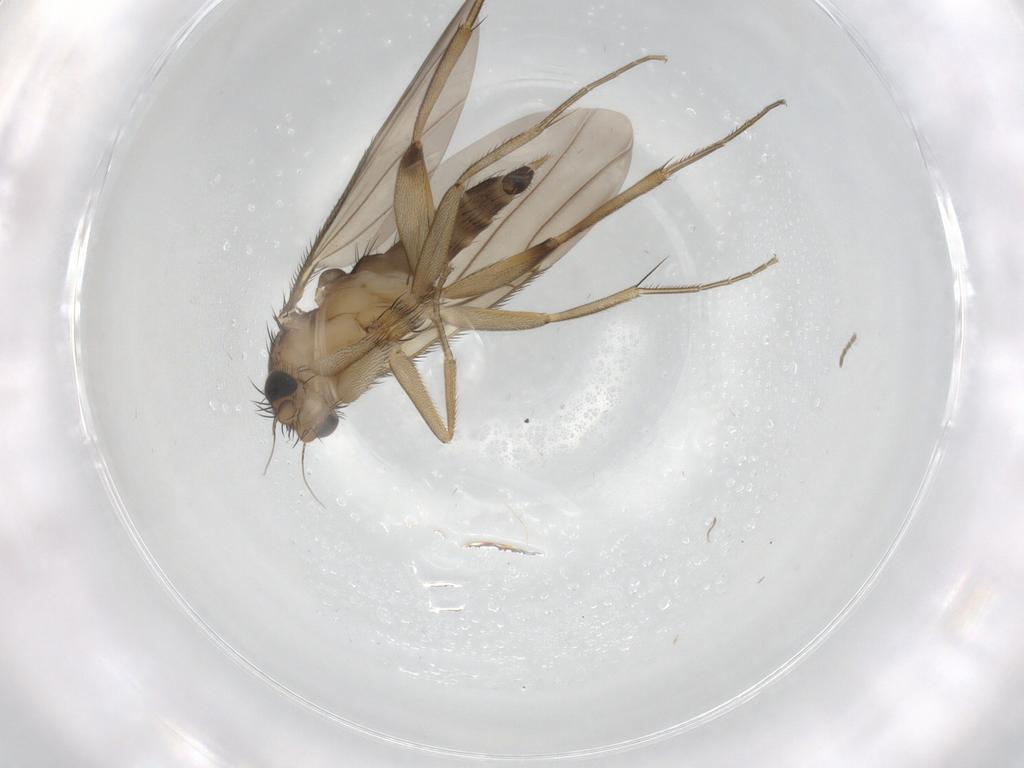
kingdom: Animalia
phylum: Arthropoda
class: Insecta
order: Diptera
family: Phoridae
